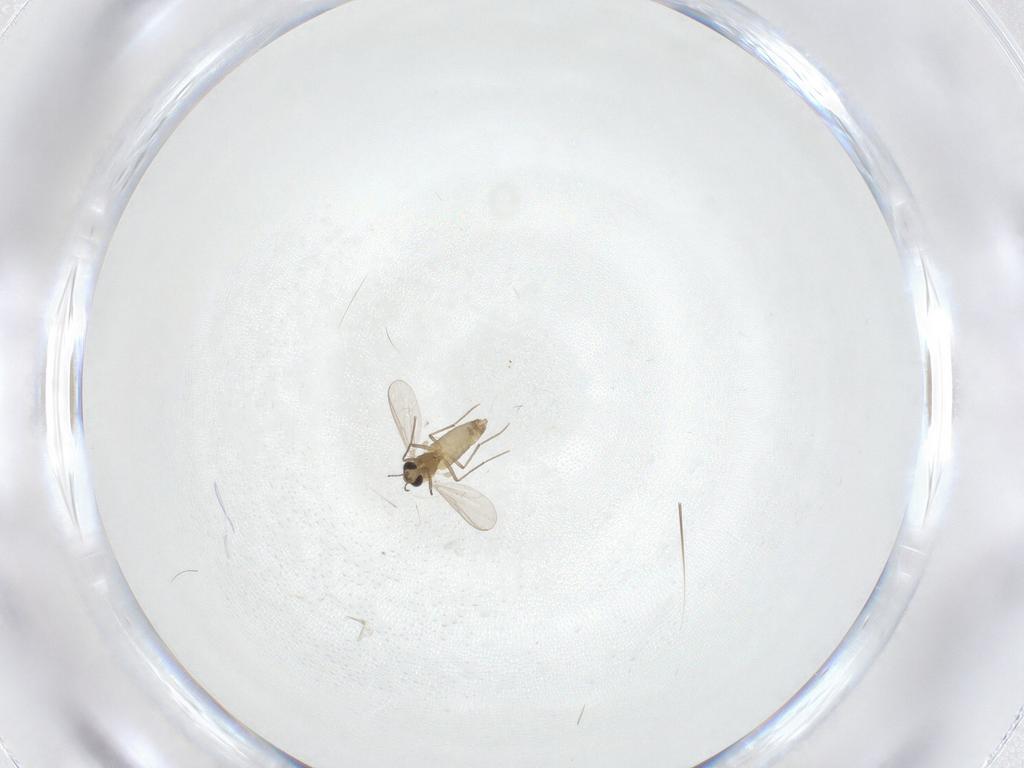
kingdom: Animalia
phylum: Arthropoda
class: Insecta
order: Diptera
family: Chironomidae
